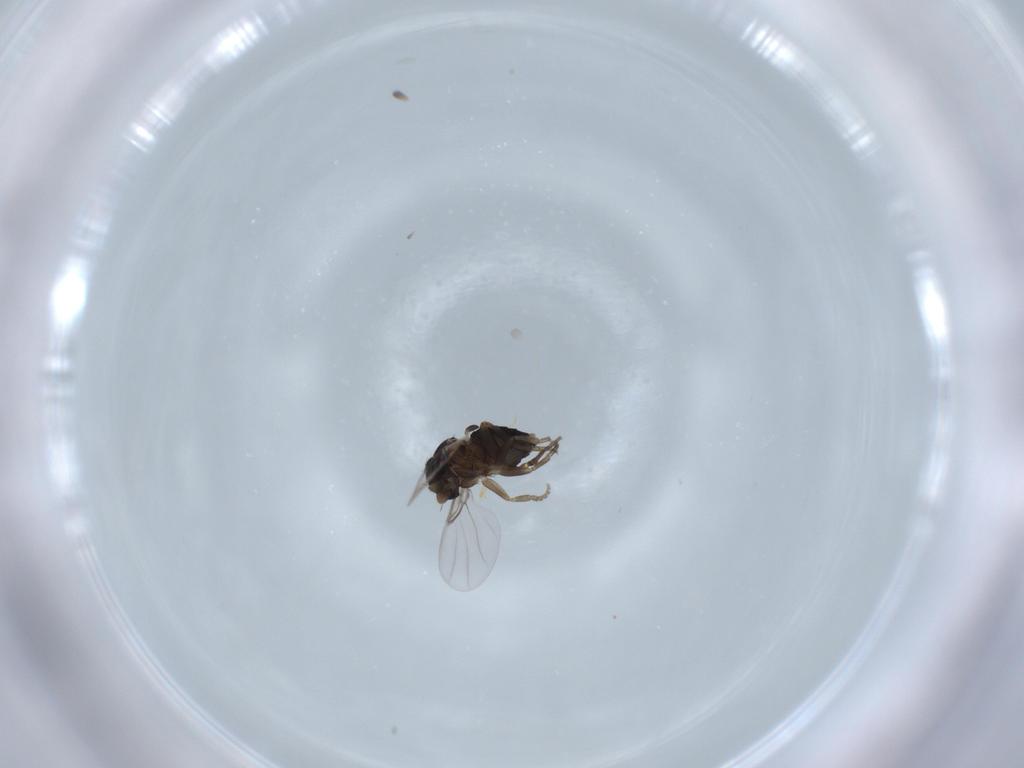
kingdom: Animalia
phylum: Arthropoda
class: Insecta
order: Diptera
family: Phoridae
